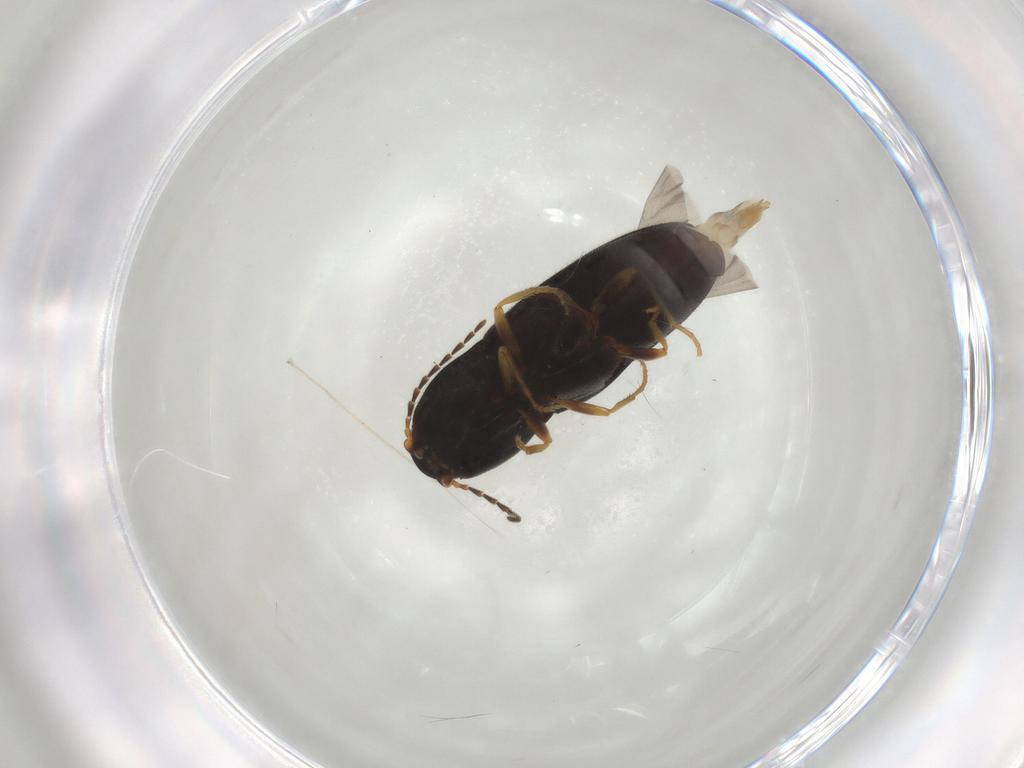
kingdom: Animalia
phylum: Arthropoda
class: Insecta
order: Coleoptera
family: Elateridae
